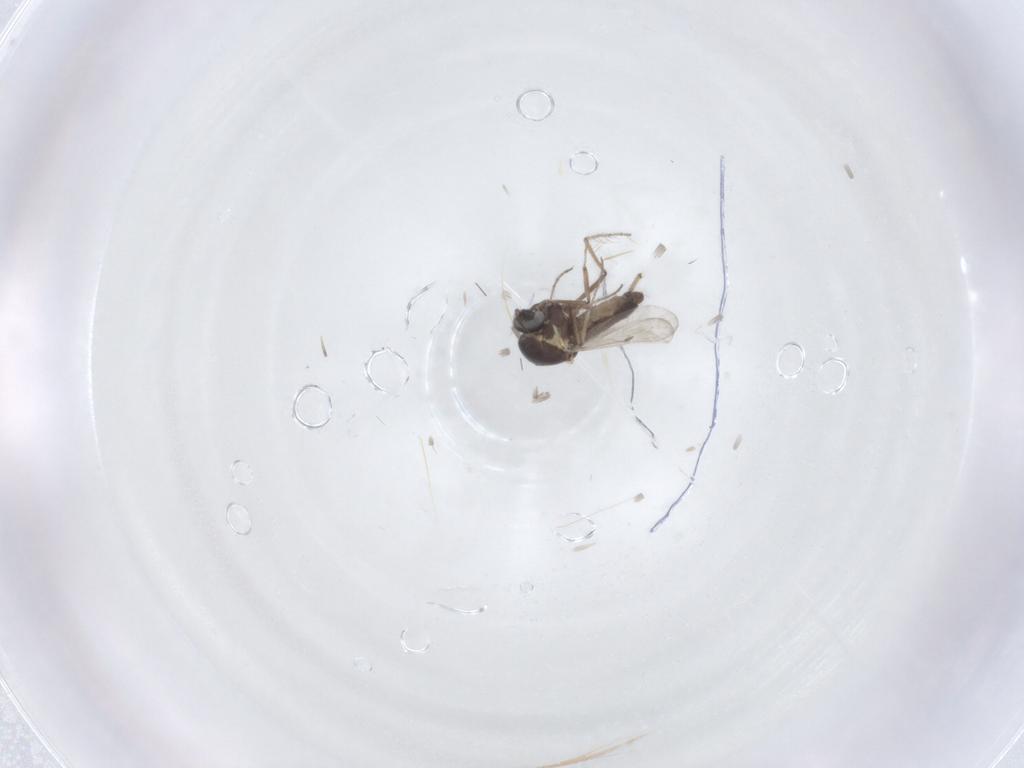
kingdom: Animalia
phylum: Arthropoda
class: Insecta
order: Diptera
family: Ceratopogonidae
